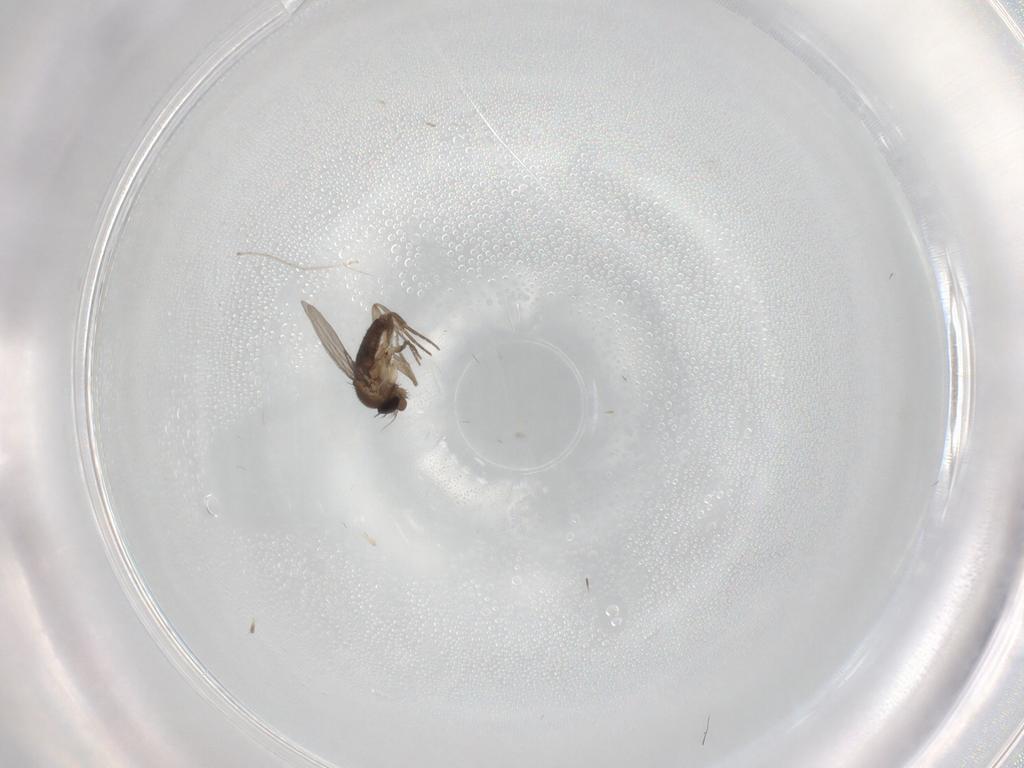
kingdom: Animalia
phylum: Arthropoda
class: Insecta
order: Diptera
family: Phoridae
